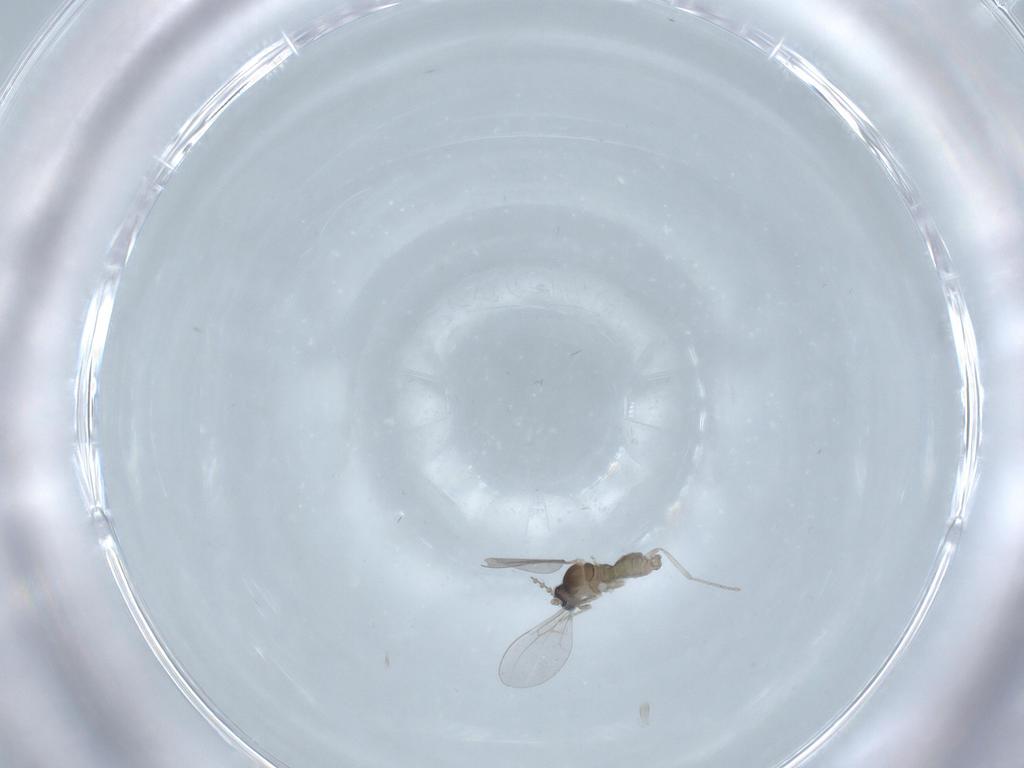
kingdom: Animalia
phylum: Arthropoda
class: Insecta
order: Diptera
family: Cecidomyiidae
